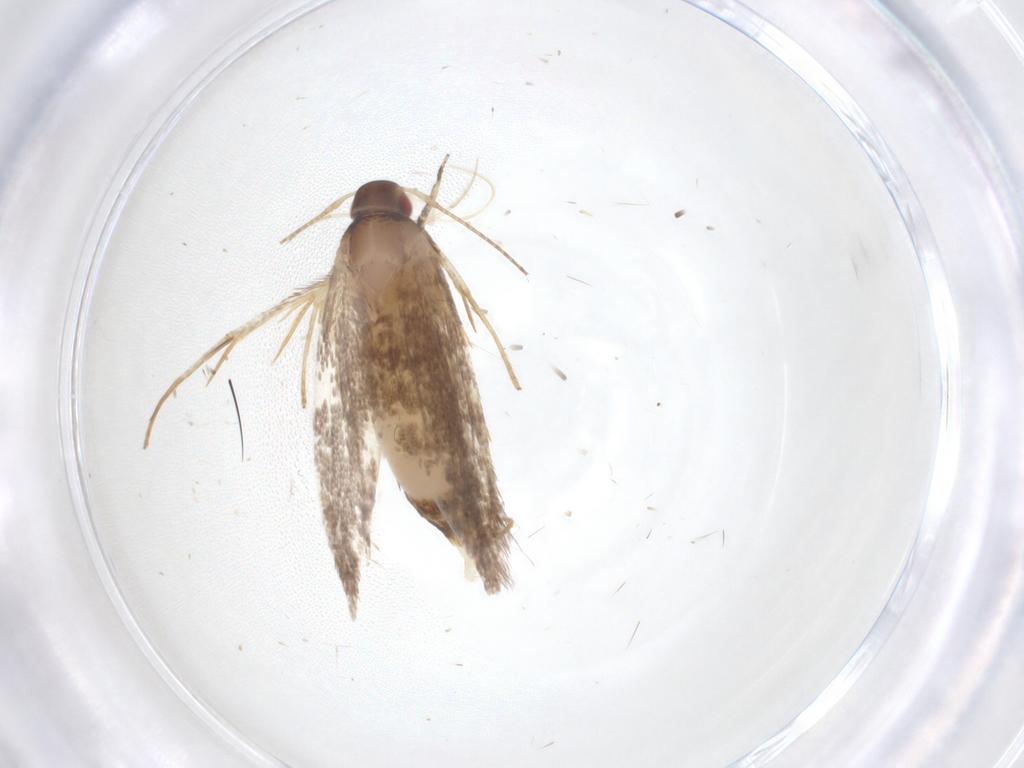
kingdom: Animalia
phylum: Arthropoda
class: Insecta
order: Lepidoptera
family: Cosmopterigidae
